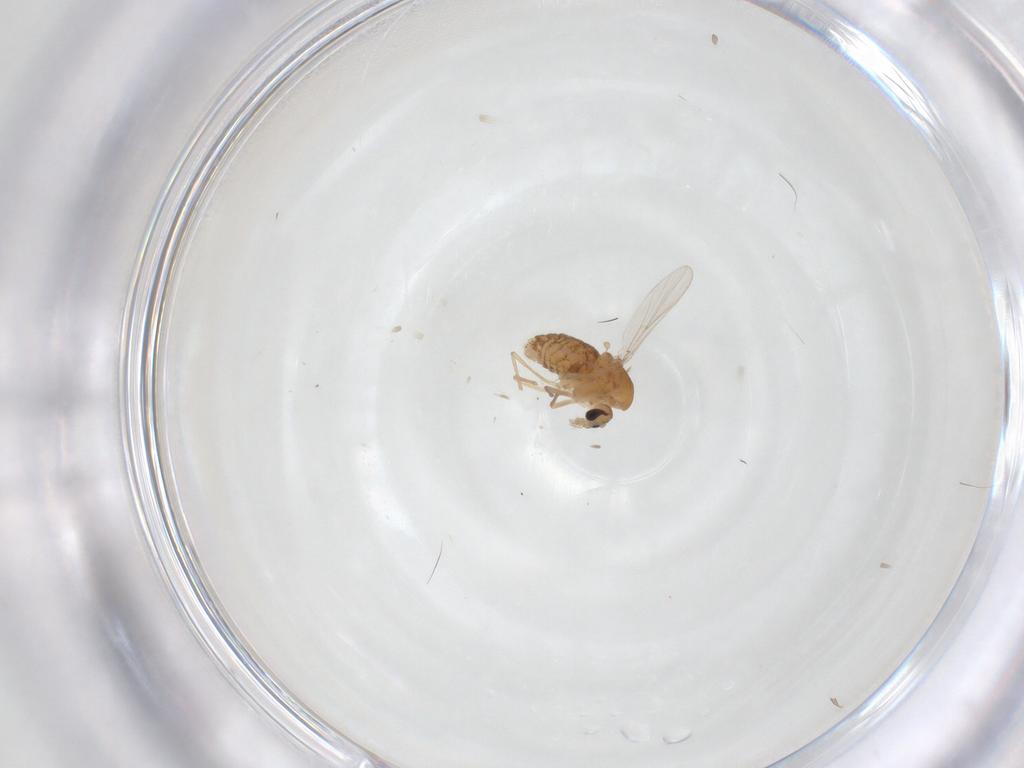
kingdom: Animalia
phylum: Arthropoda
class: Insecta
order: Diptera
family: Chironomidae
